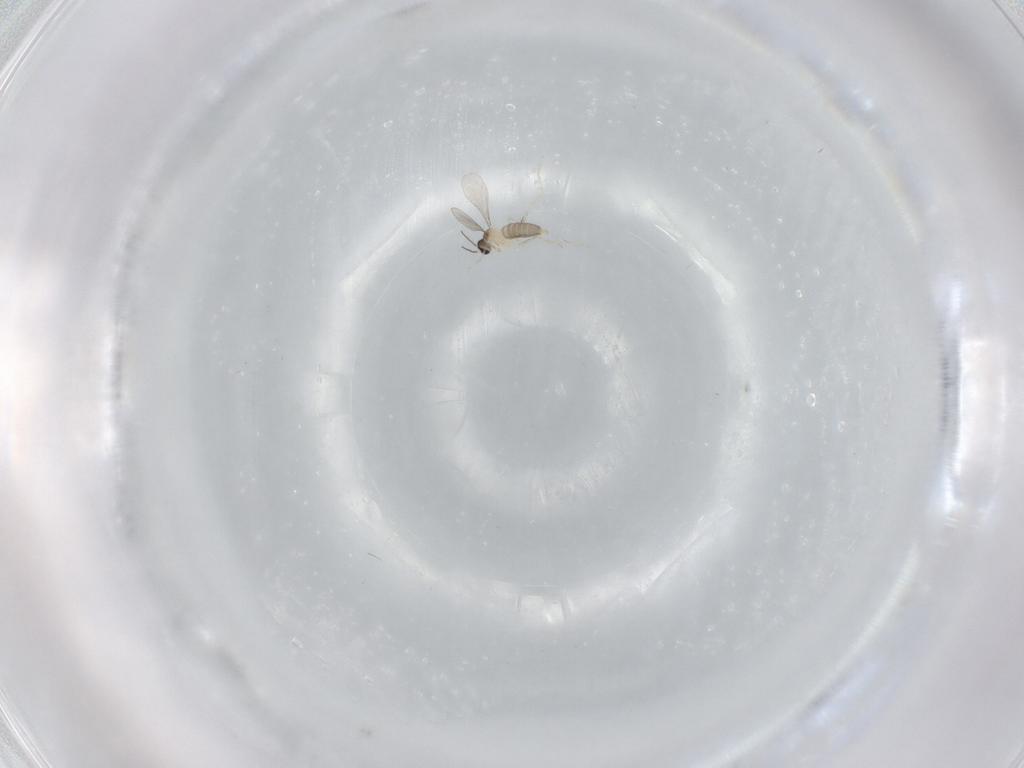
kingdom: Animalia
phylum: Arthropoda
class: Insecta
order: Diptera
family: Cecidomyiidae
